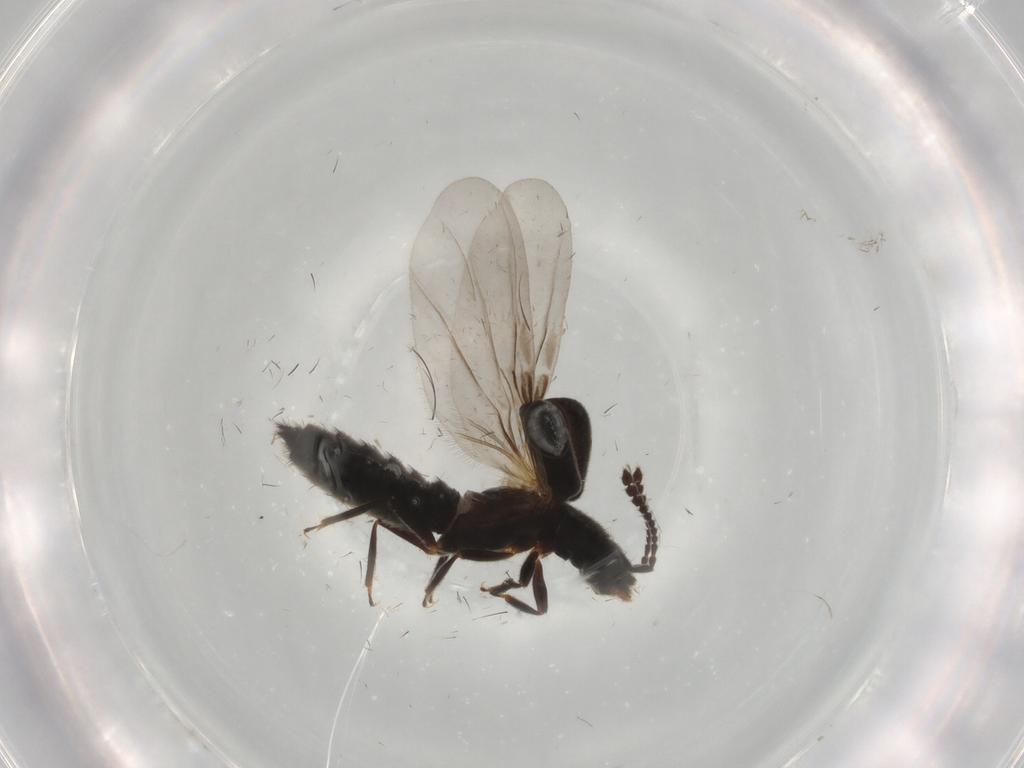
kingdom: Animalia
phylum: Arthropoda
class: Insecta
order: Coleoptera
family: Staphylinidae
